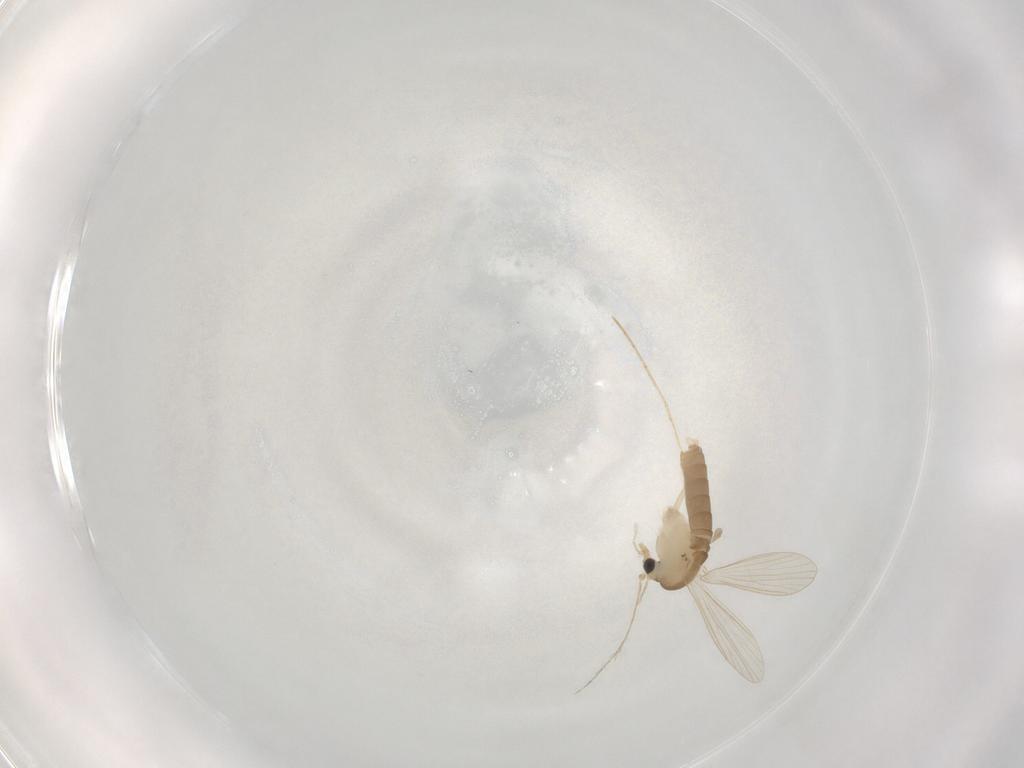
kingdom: Animalia
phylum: Arthropoda
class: Insecta
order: Diptera
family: Psychodidae
